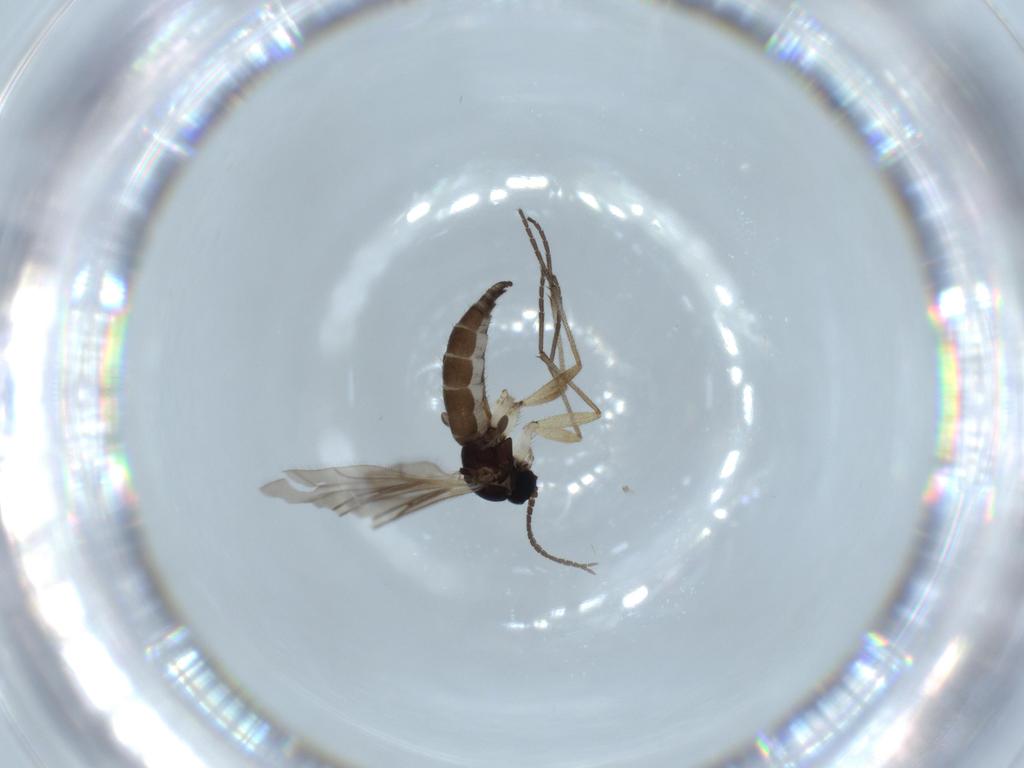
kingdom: Animalia
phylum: Arthropoda
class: Insecta
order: Diptera
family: Sciaridae
